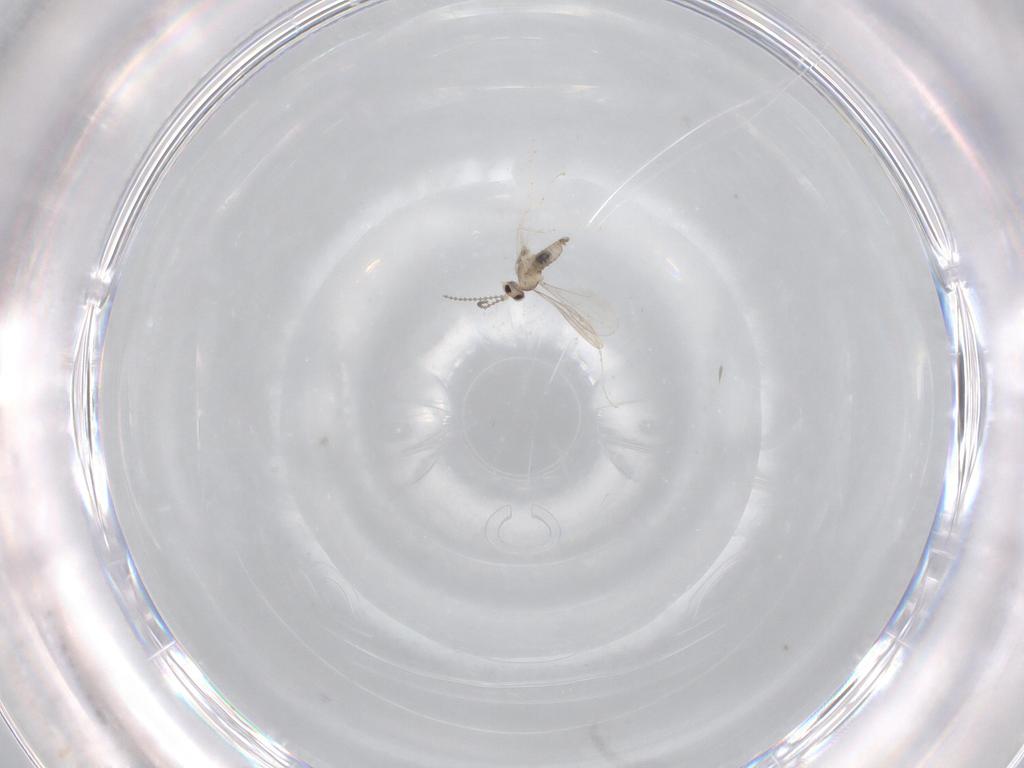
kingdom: Animalia
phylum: Arthropoda
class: Insecta
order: Diptera
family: Cecidomyiidae
